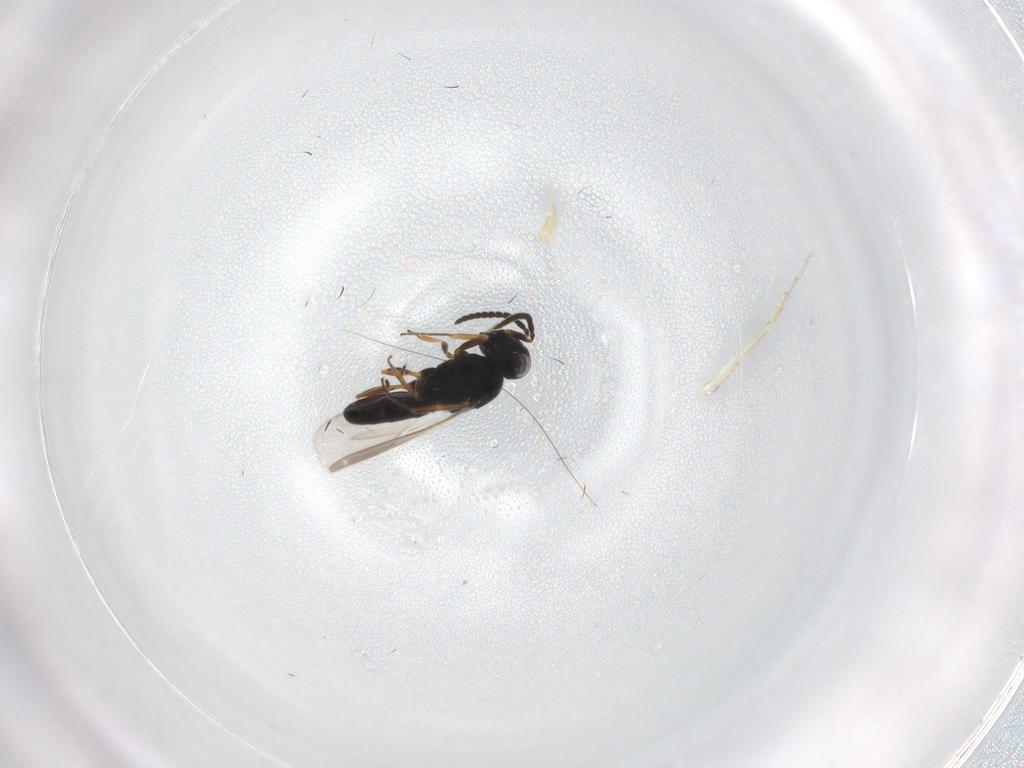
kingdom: Animalia
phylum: Arthropoda
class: Insecta
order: Hymenoptera
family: Scelionidae
